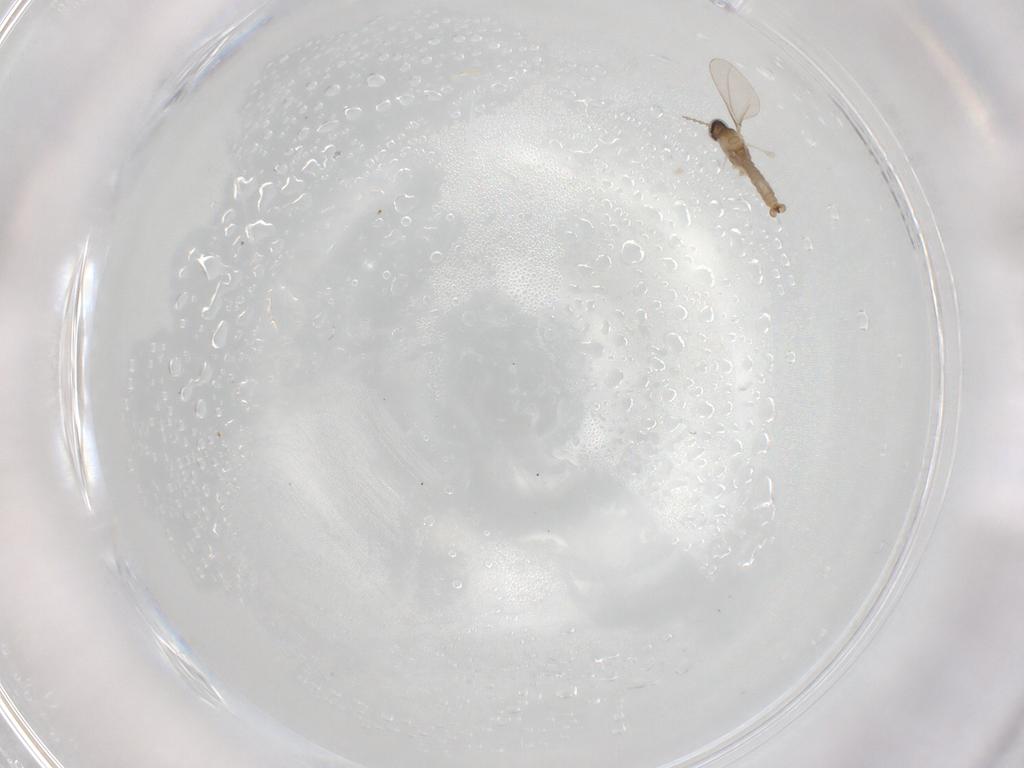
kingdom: Animalia
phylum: Arthropoda
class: Insecta
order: Diptera
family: Cecidomyiidae
